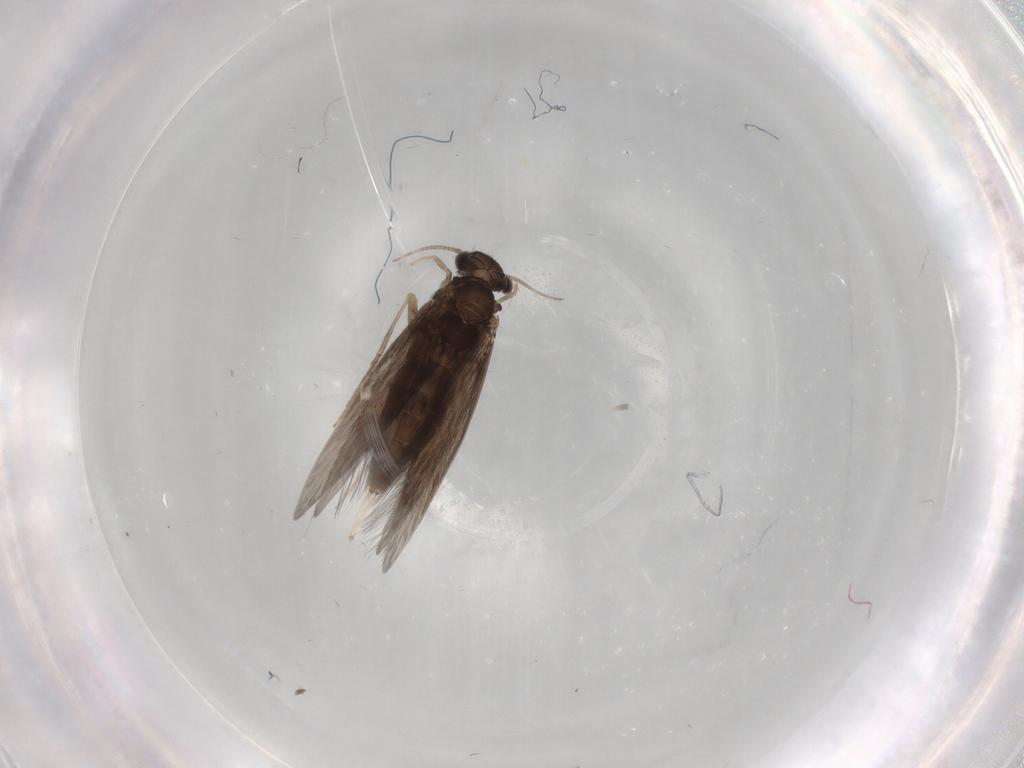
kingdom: Animalia
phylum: Arthropoda
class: Insecta
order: Trichoptera
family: Hydroptilidae
